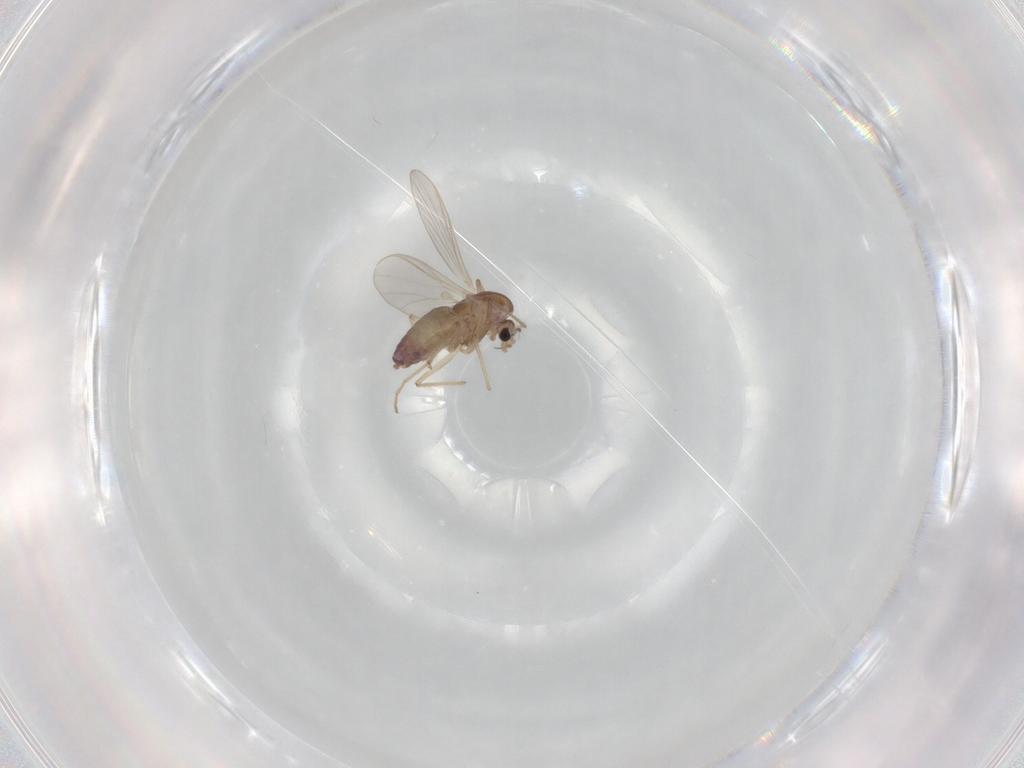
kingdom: Animalia
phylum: Arthropoda
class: Insecta
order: Diptera
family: Chironomidae
